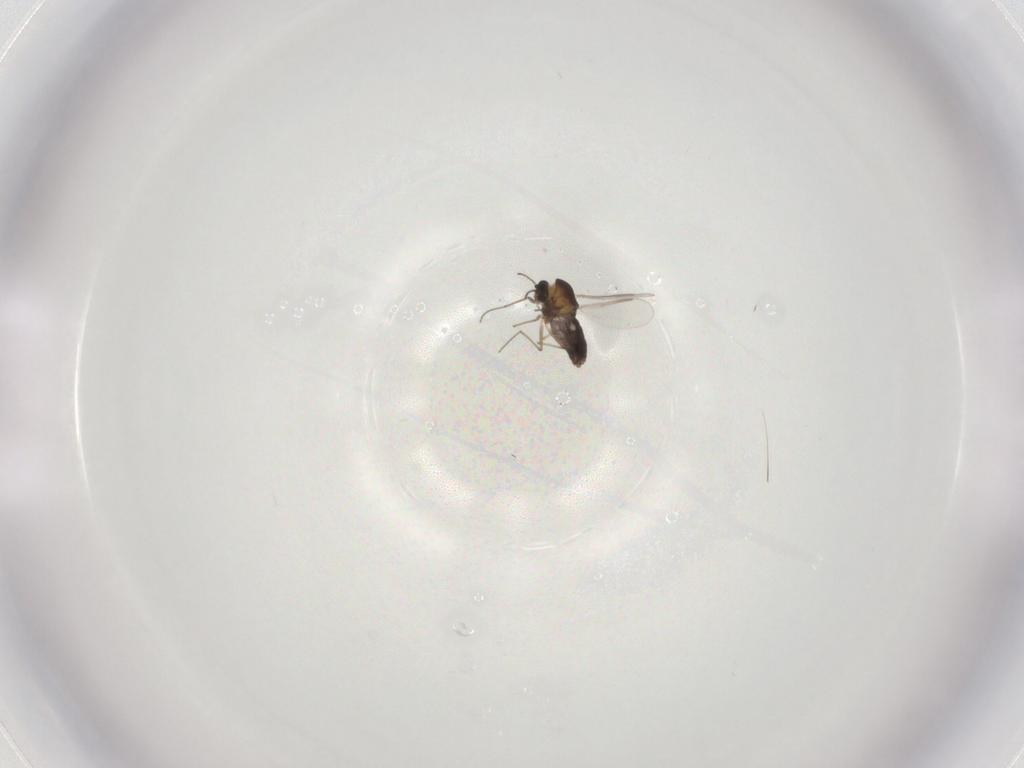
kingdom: Animalia
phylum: Arthropoda
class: Insecta
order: Diptera
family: Chironomidae
